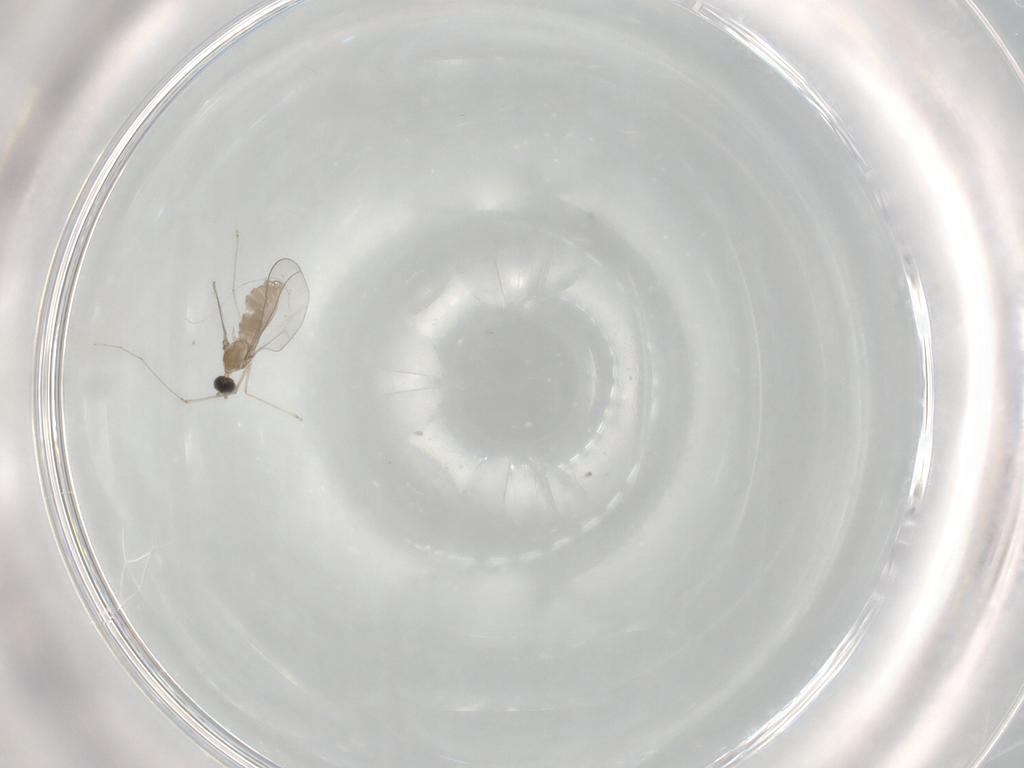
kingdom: Animalia
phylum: Arthropoda
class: Insecta
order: Diptera
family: Cecidomyiidae
